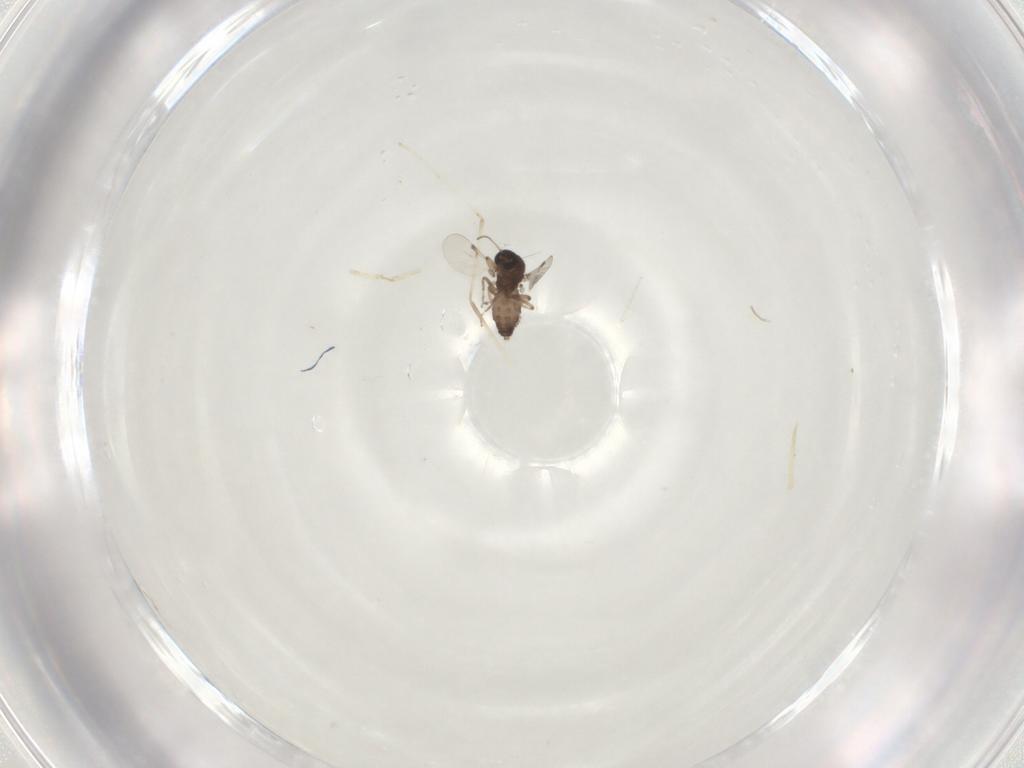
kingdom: Animalia
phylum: Arthropoda
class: Insecta
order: Diptera
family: Ceratopogonidae
